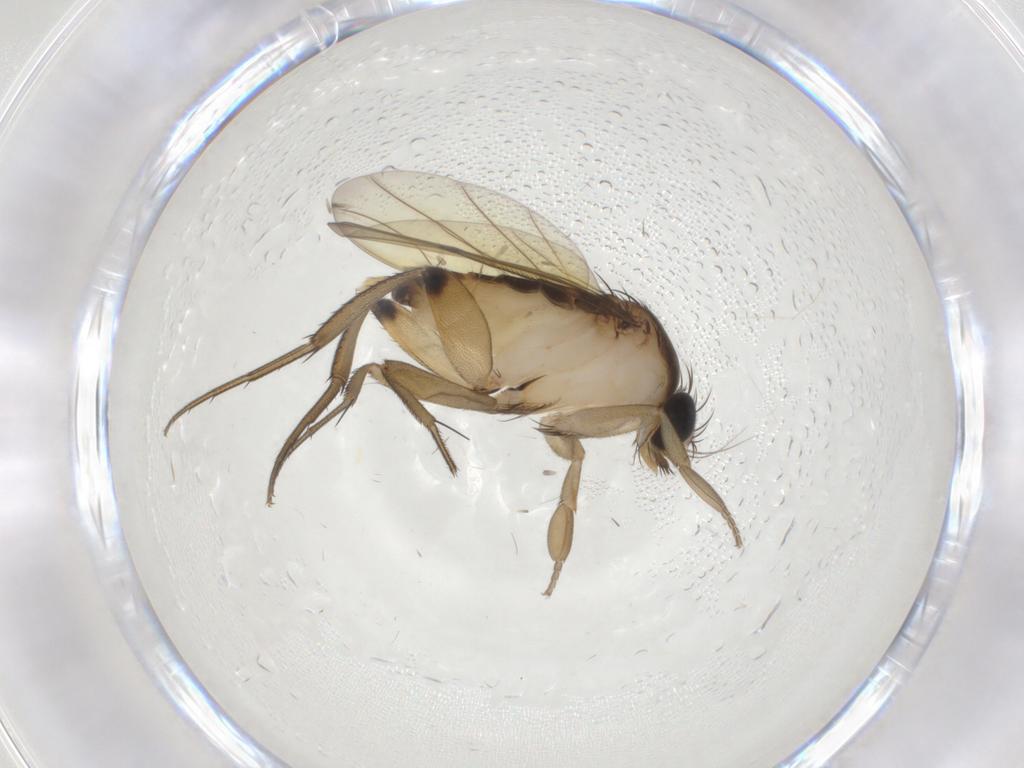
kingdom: Animalia
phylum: Arthropoda
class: Insecta
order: Diptera
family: Phoridae
